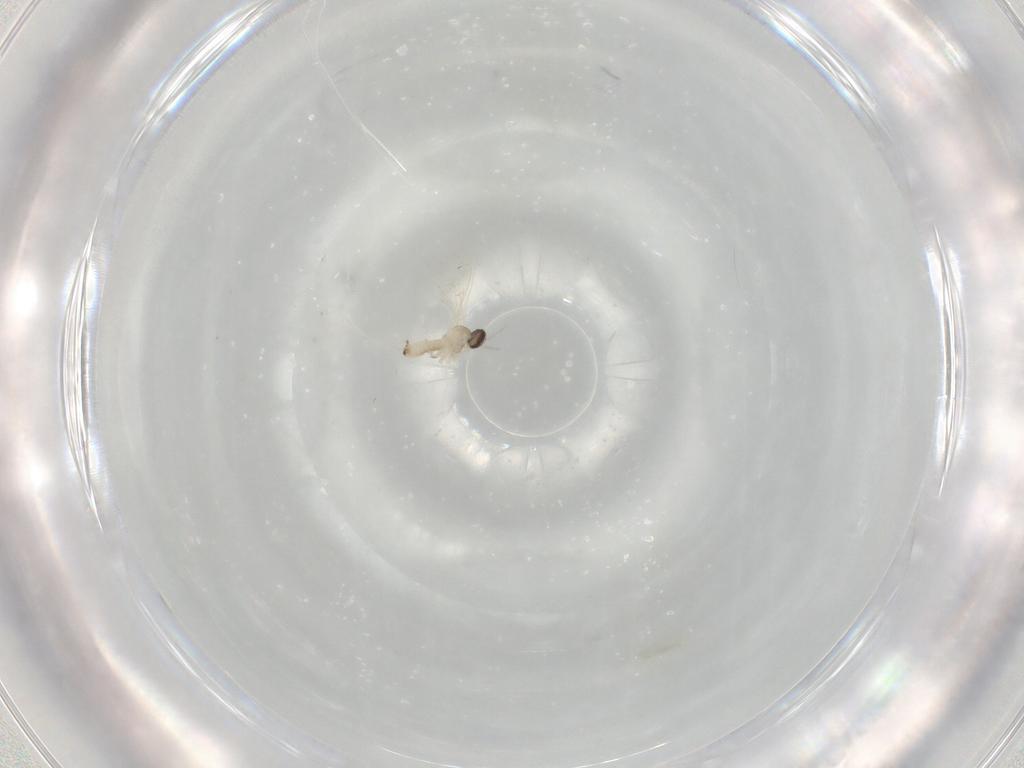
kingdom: Animalia
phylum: Arthropoda
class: Insecta
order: Diptera
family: Cecidomyiidae
